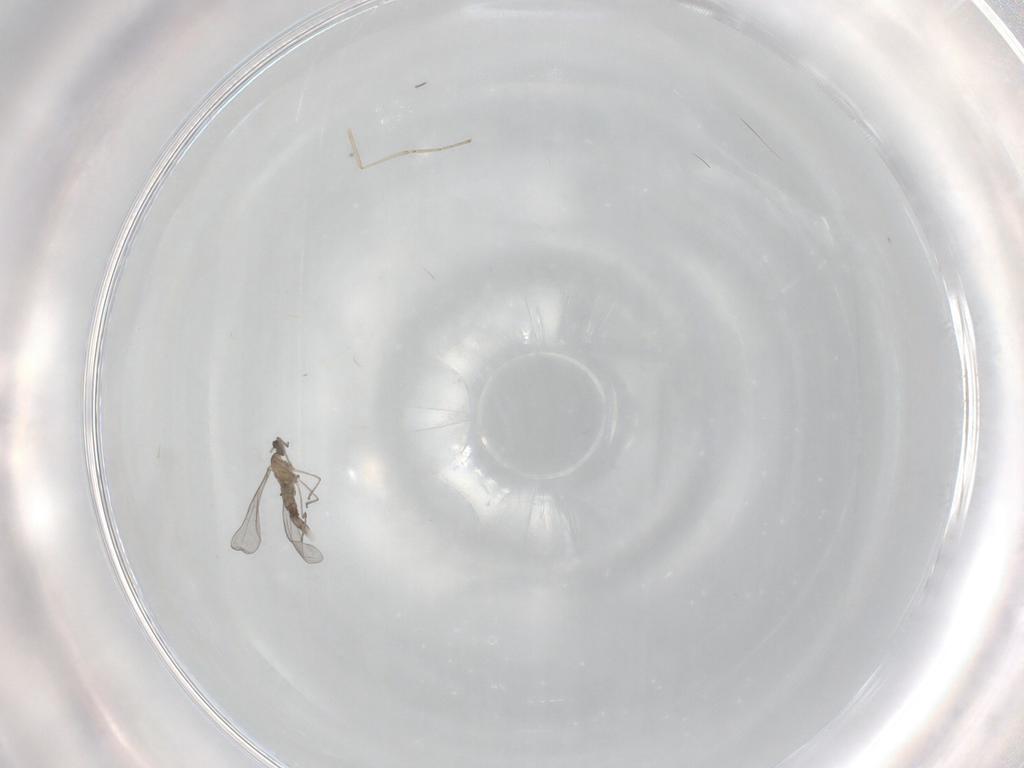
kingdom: Animalia
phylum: Arthropoda
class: Insecta
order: Diptera
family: Cecidomyiidae
